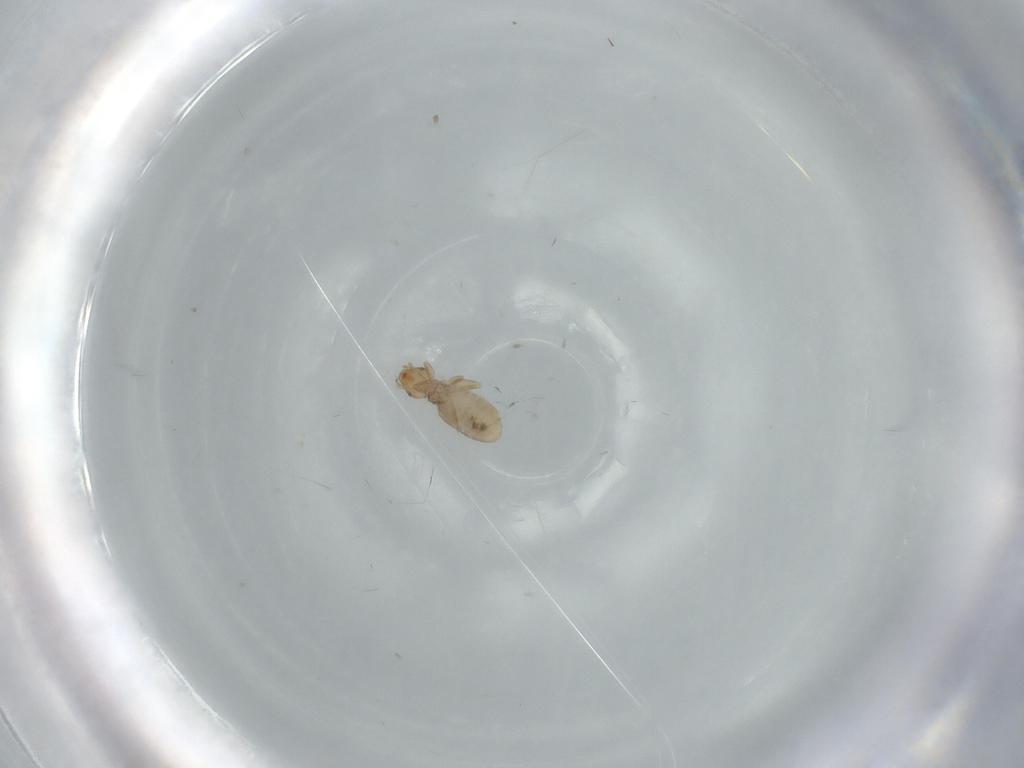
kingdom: Animalia
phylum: Arthropoda
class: Insecta
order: Psocodea
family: Liposcelididae
